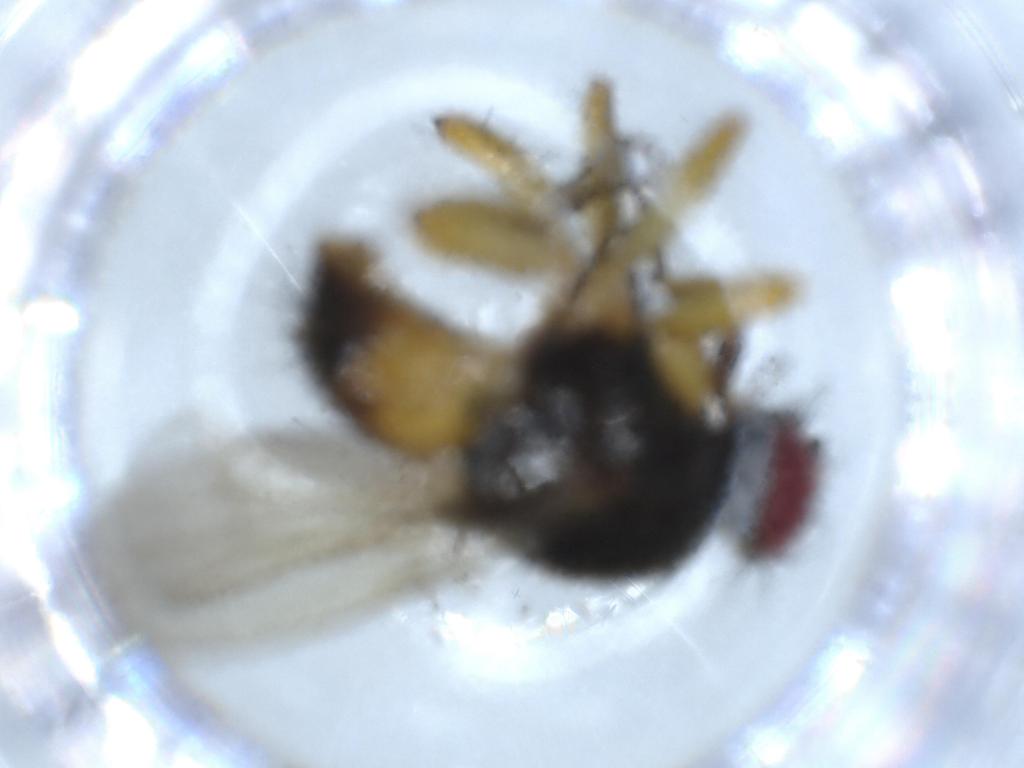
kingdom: Animalia
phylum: Arthropoda
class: Insecta
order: Diptera
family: Muscidae
